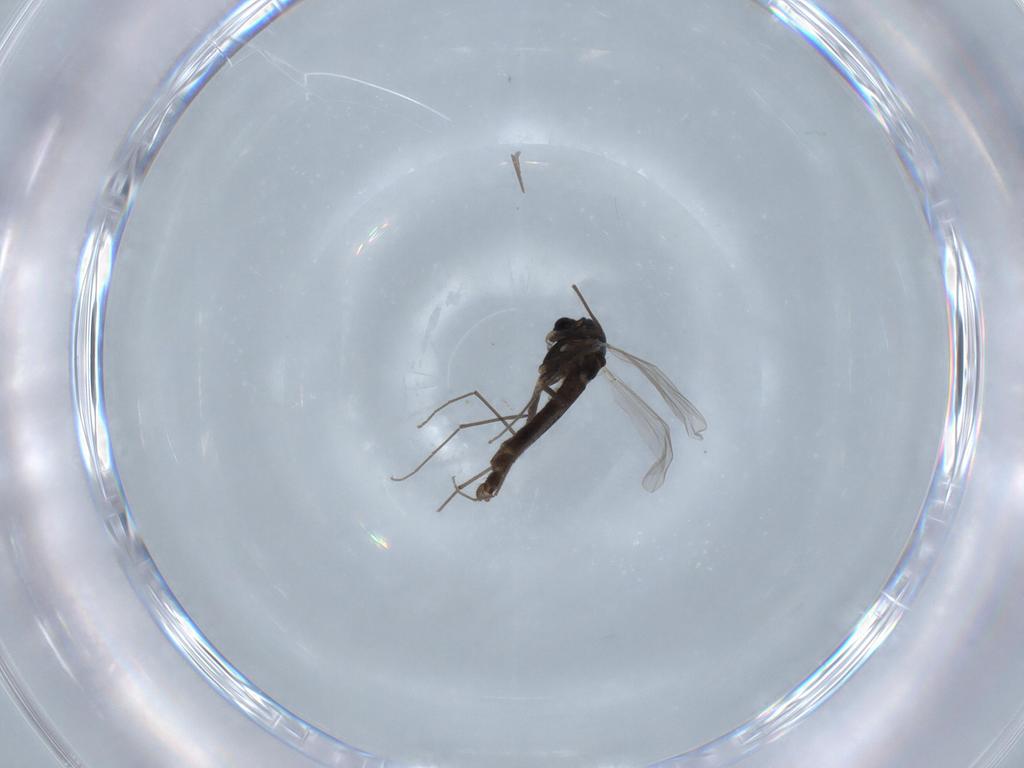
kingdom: Animalia
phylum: Arthropoda
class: Insecta
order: Diptera
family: Chironomidae
